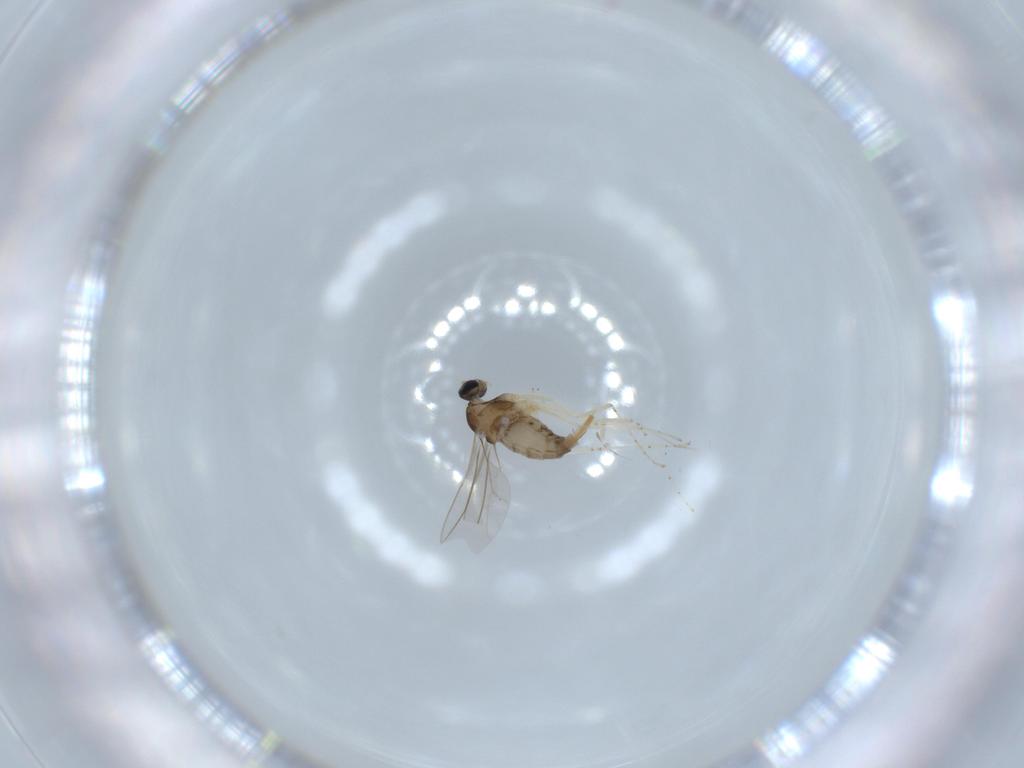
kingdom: Animalia
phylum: Arthropoda
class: Insecta
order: Diptera
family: Cecidomyiidae
